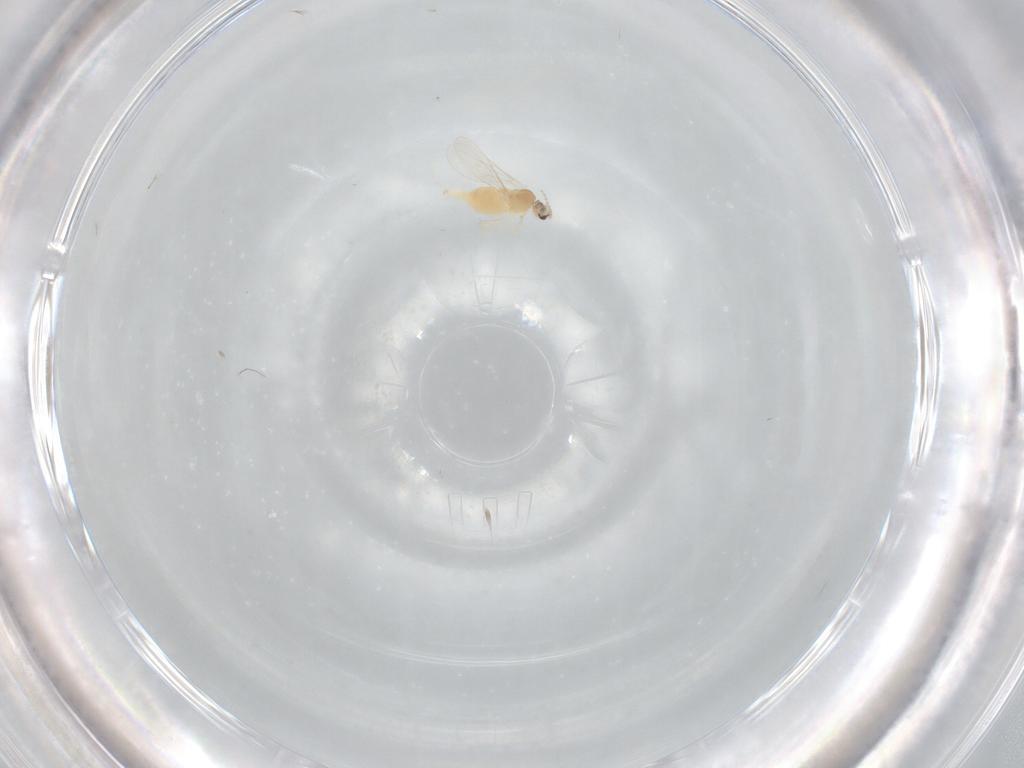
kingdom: Animalia
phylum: Arthropoda
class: Insecta
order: Diptera
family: Cecidomyiidae
